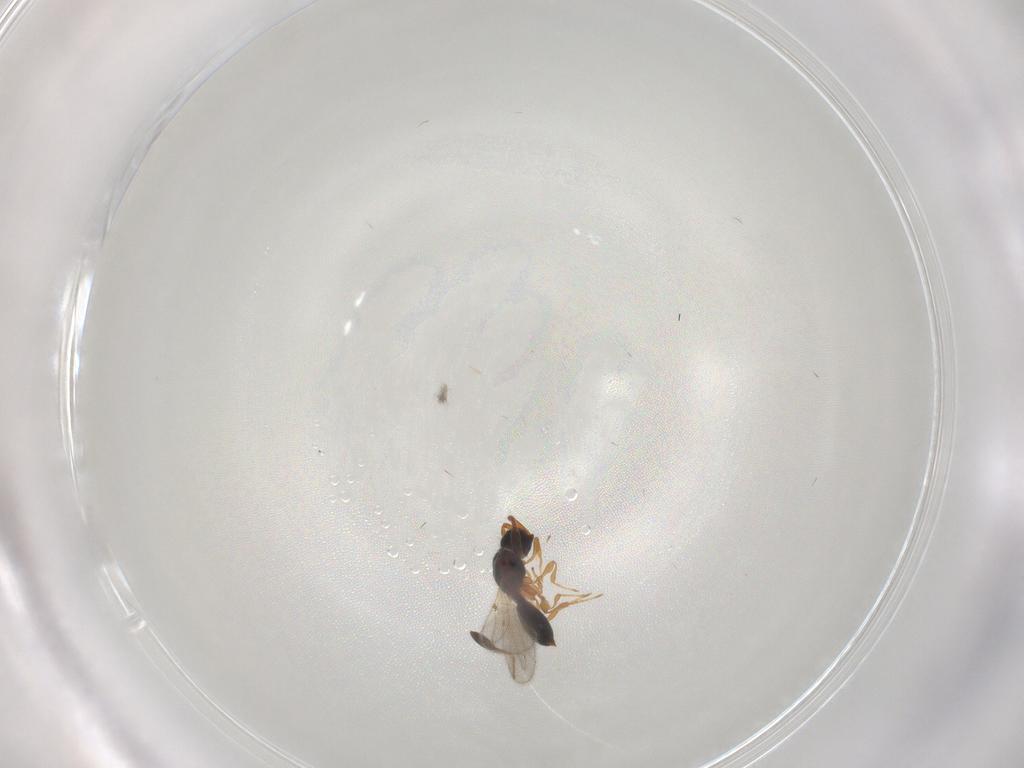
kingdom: Animalia
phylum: Arthropoda
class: Insecta
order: Hymenoptera
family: Mymaridae
